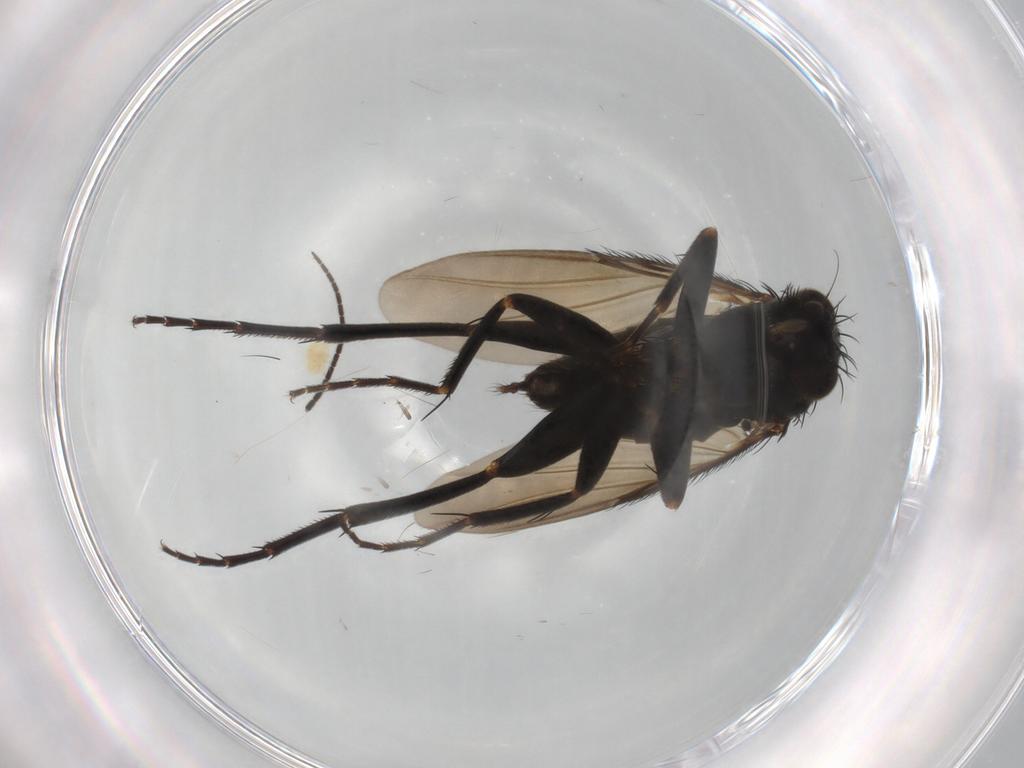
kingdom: Animalia
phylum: Arthropoda
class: Insecta
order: Diptera
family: Phoridae
